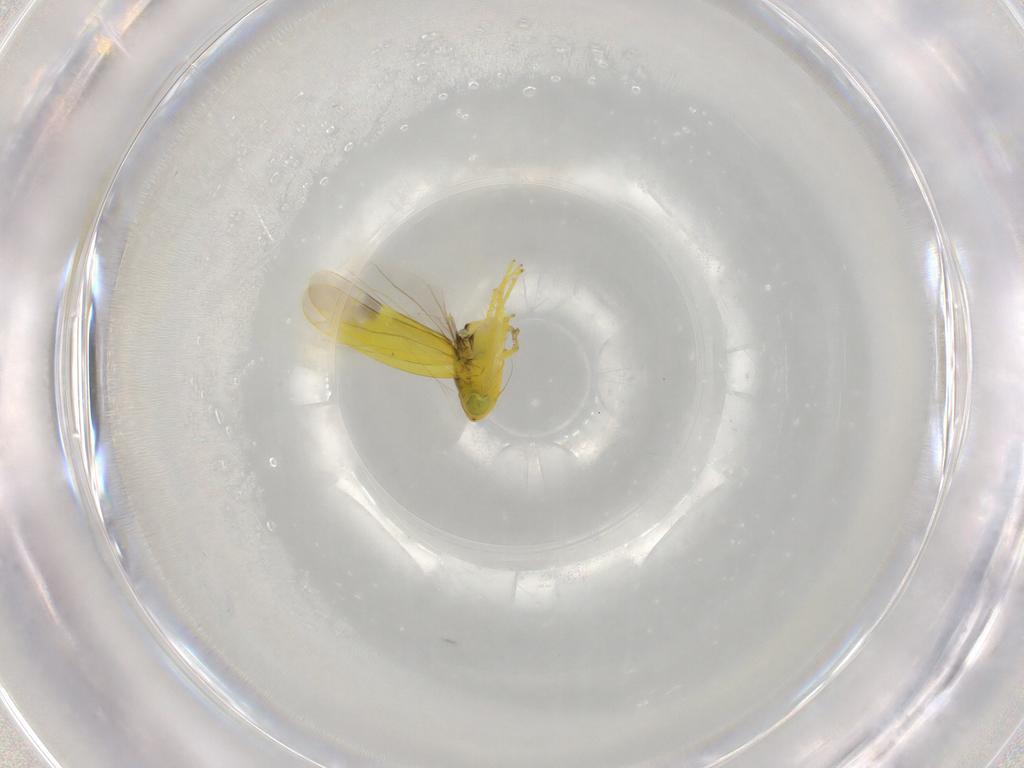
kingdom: Animalia
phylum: Arthropoda
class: Insecta
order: Hemiptera
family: Cicadellidae
